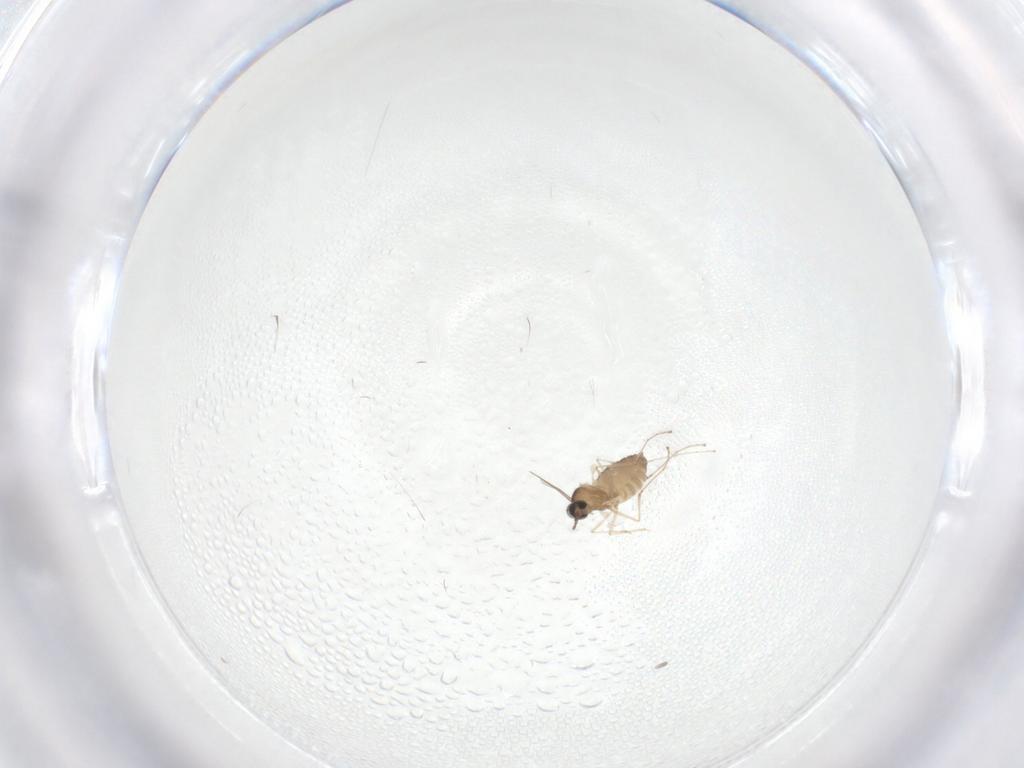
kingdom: Animalia
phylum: Arthropoda
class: Insecta
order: Diptera
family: Cecidomyiidae
